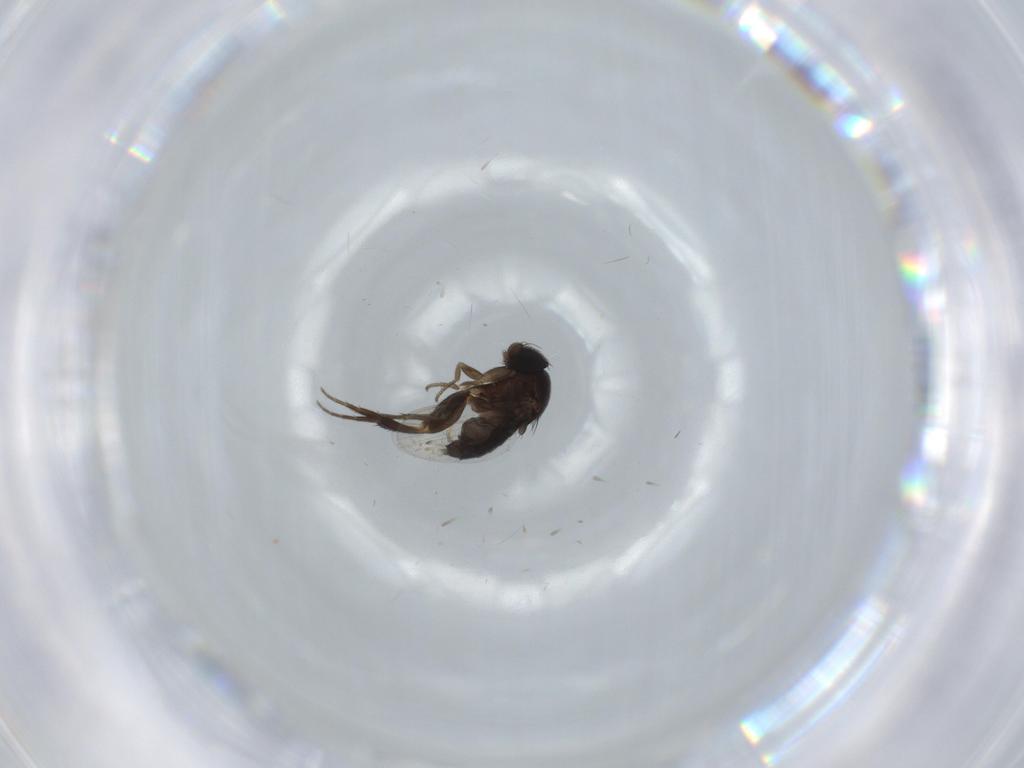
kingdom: Animalia
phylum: Arthropoda
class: Insecta
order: Diptera
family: Phoridae
